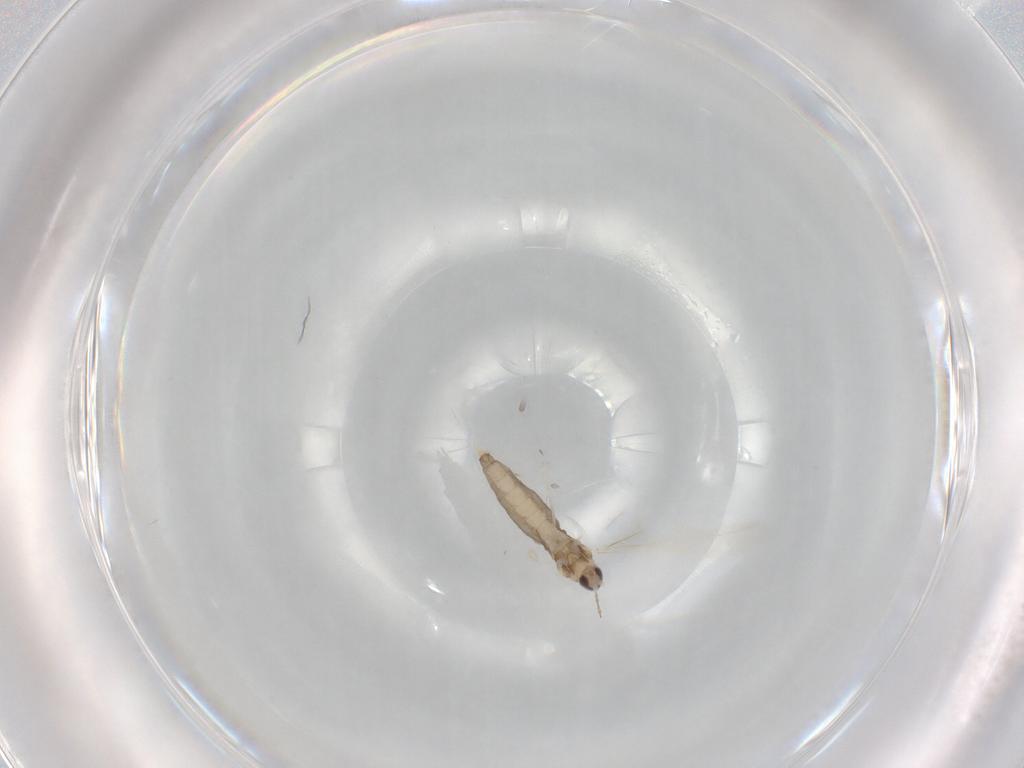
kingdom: Animalia
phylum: Arthropoda
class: Insecta
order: Diptera
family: Cecidomyiidae
